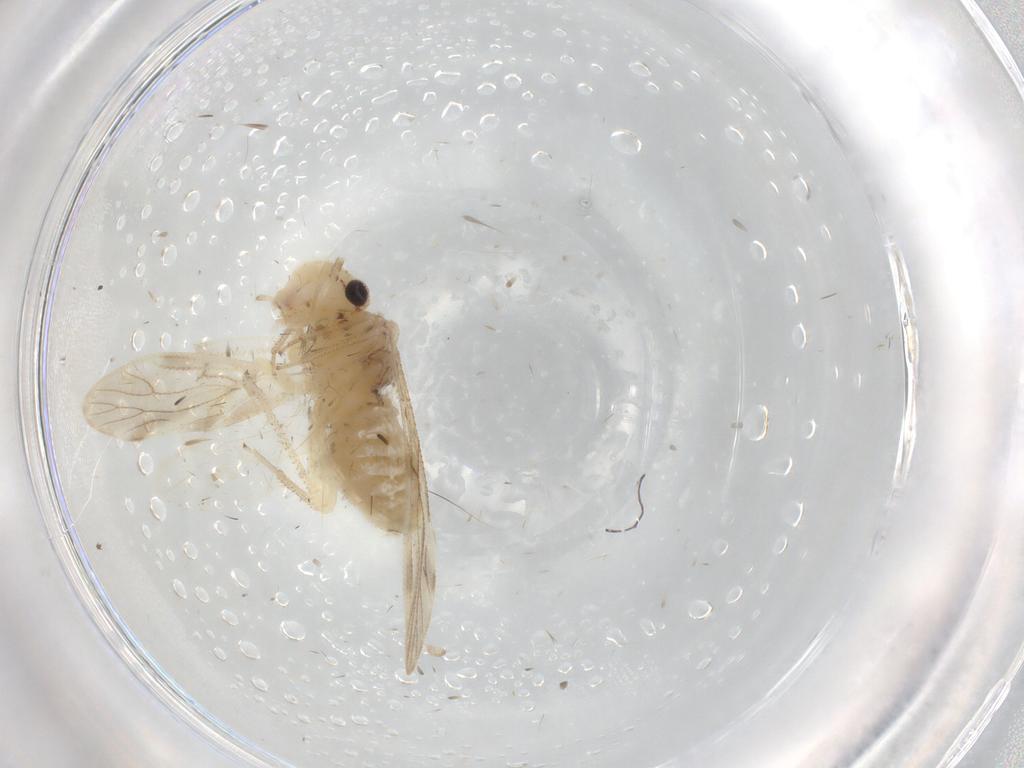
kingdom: Animalia
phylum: Arthropoda
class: Insecta
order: Psocodea
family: Pseudocaeciliidae
